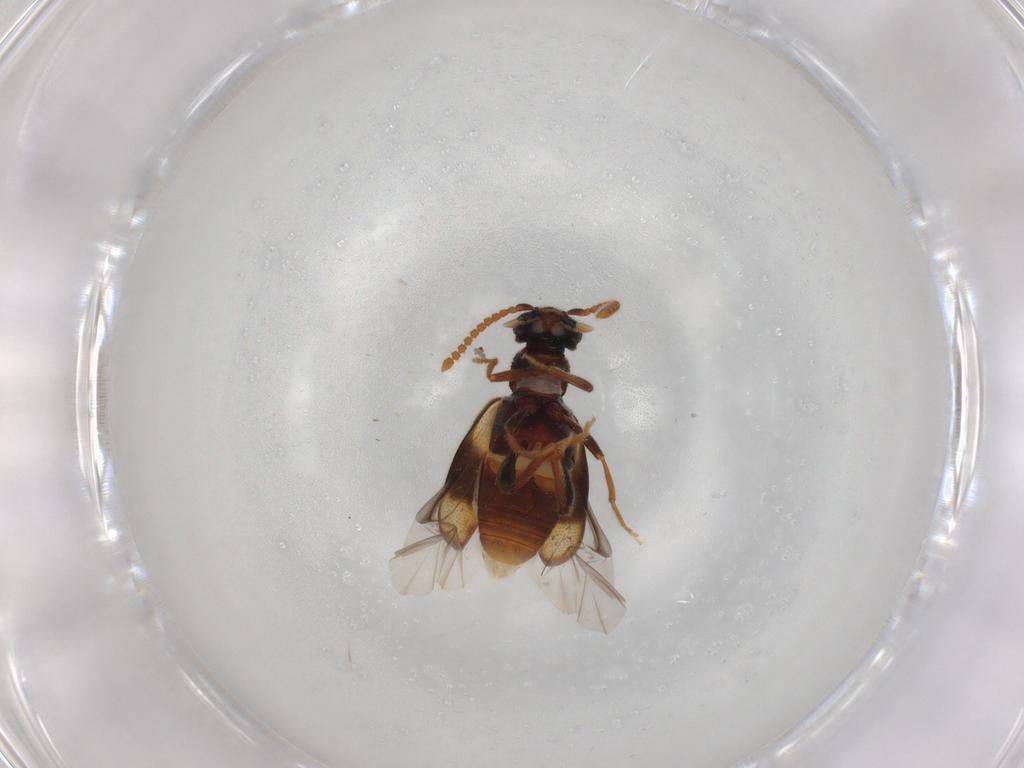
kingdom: Animalia
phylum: Arthropoda
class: Insecta
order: Coleoptera
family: Aderidae
